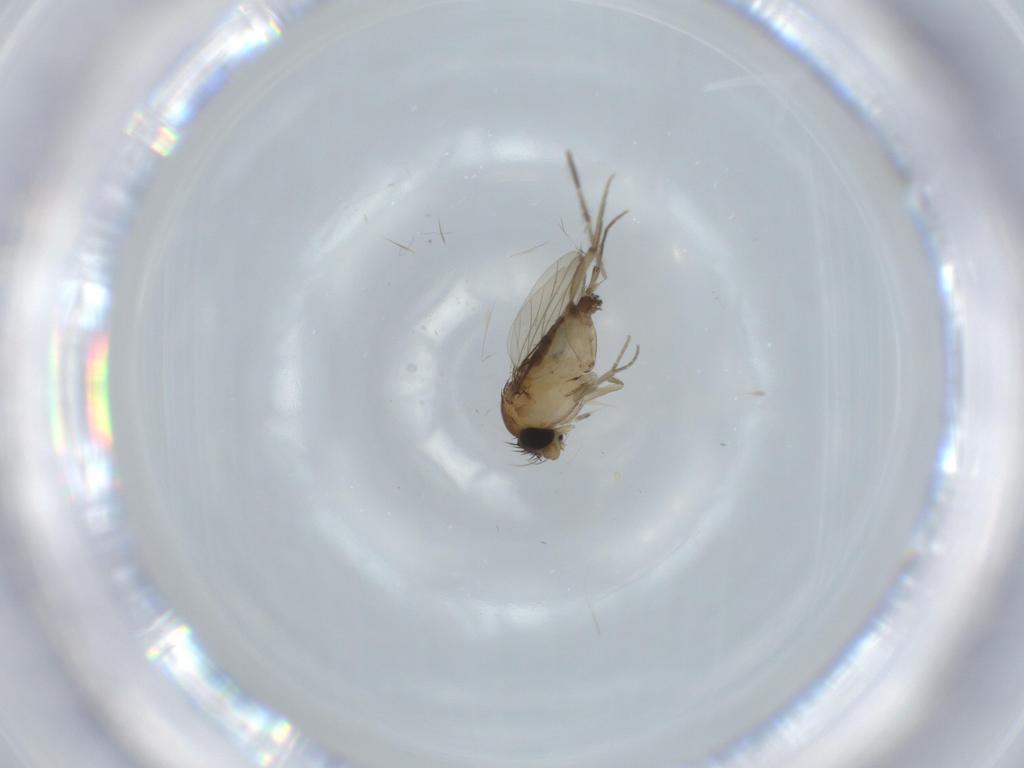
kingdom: Animalia
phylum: Arthropoda
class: Insecta
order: Diptera
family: Phoridae
